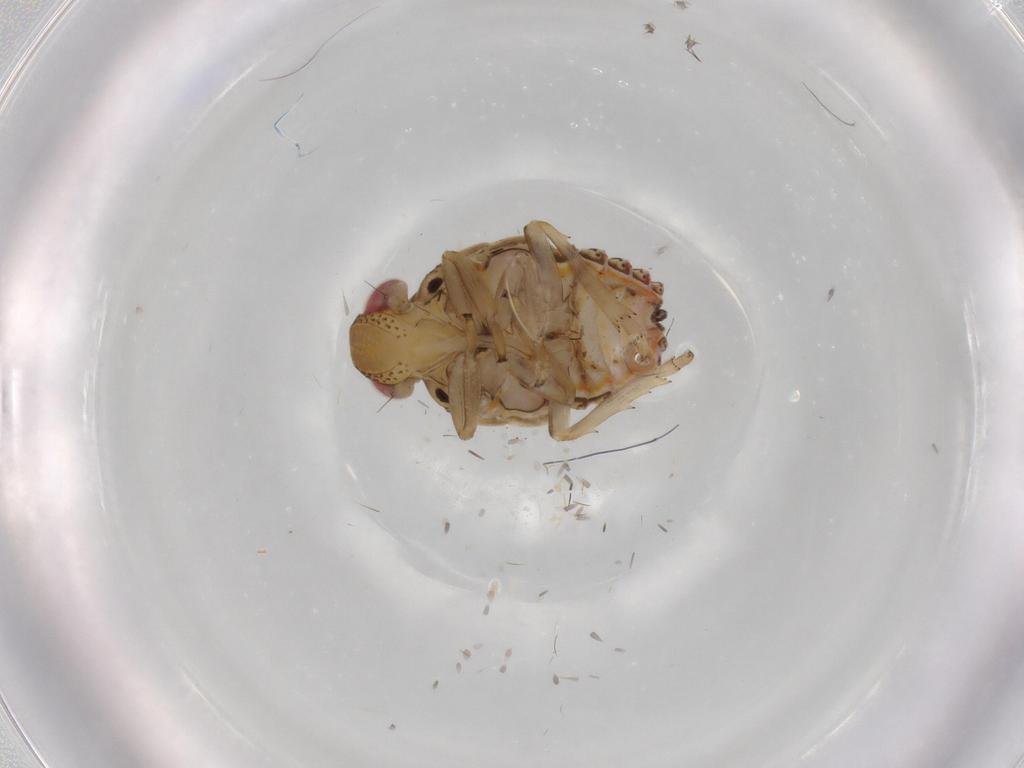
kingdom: Animalia
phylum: Arthropoda
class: Insecta
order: Hemiptera
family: Issidae
